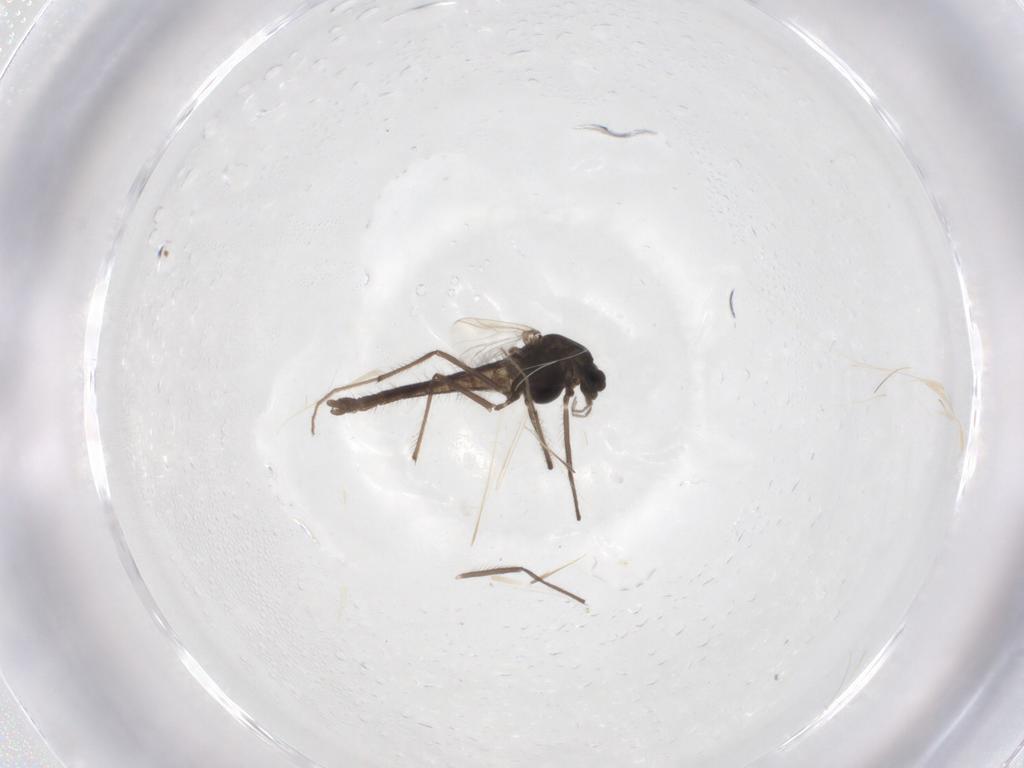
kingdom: Animalia
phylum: Arthropoda
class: Insecta
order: Diptera
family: Chironomidae
